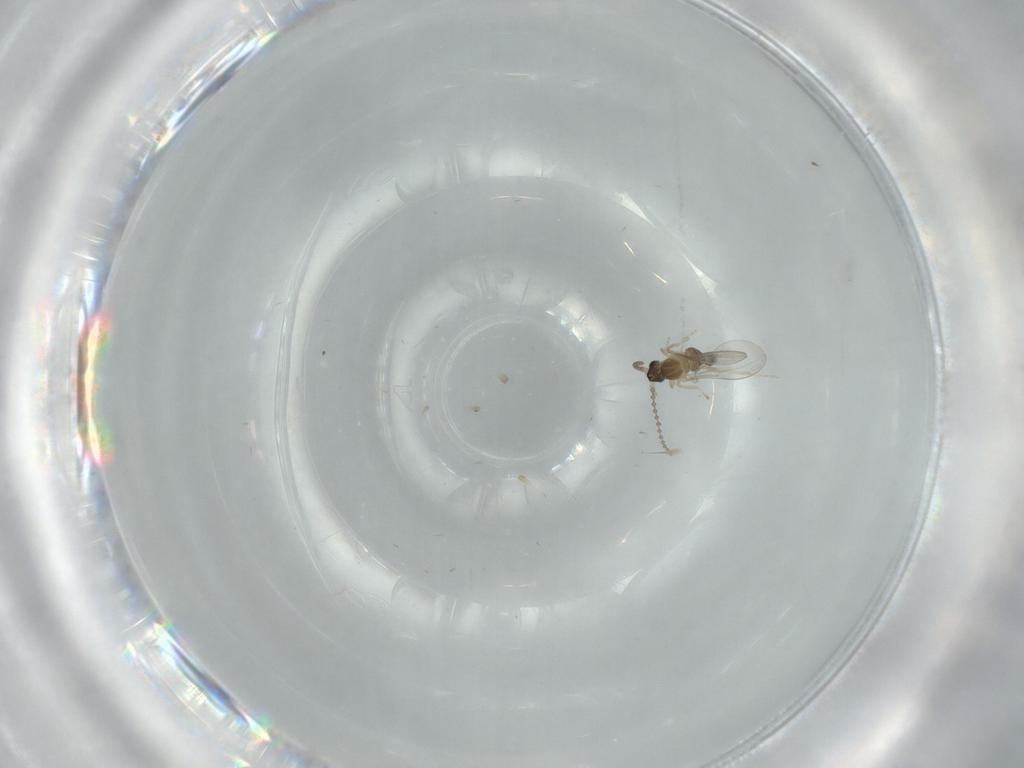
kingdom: Animalia
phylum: Arthropoda
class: Insecta
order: Diptera
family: Cecidomyiidae
